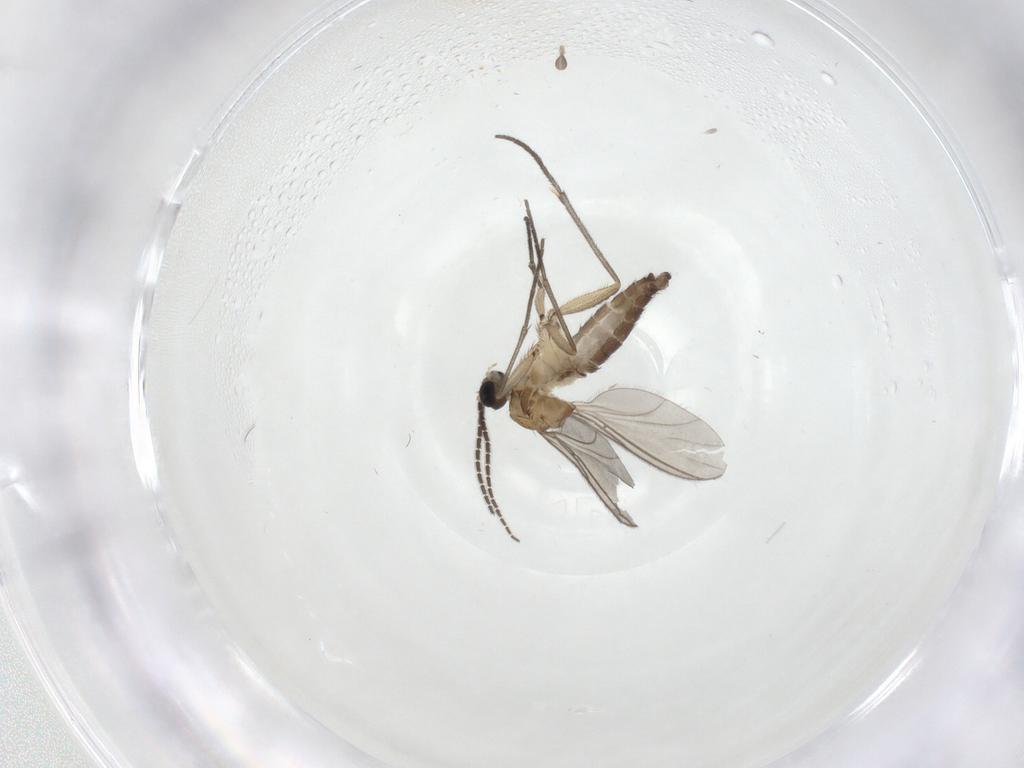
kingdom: Animalia
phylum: Arthropoda
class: Insecta
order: Diptera
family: Sciaridae
